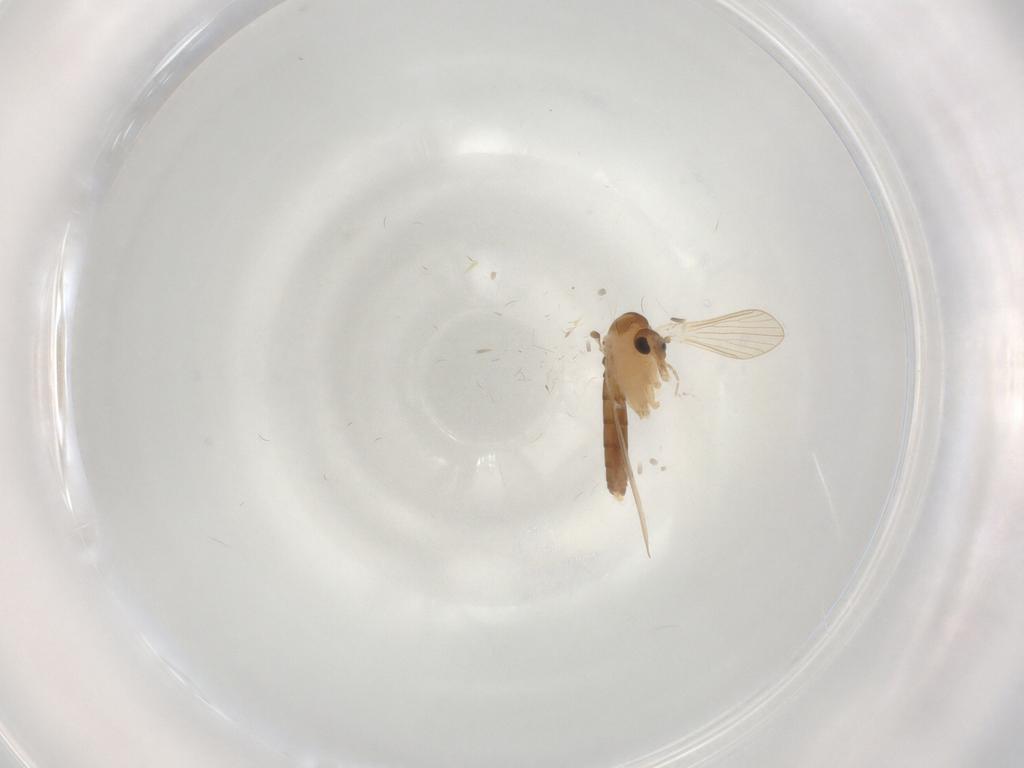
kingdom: Animalia
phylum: Arthropoda
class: Insecta
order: Diptera
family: Psychodidae
